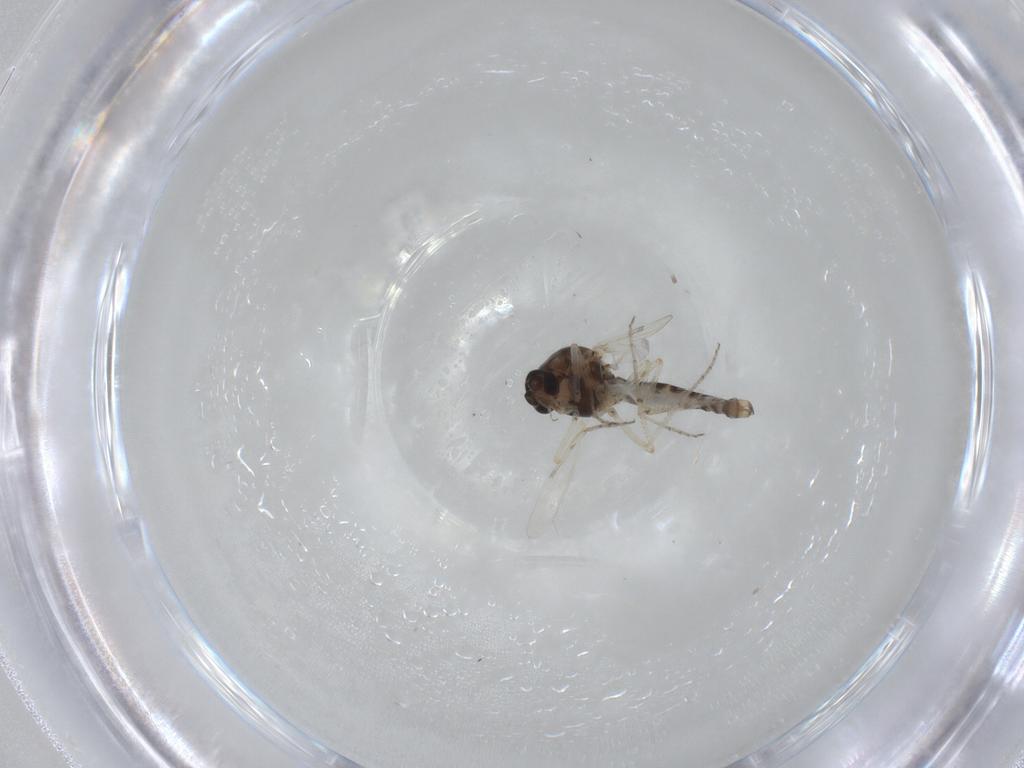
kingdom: Animalia
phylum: Arthropoda
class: Insecta
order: Diptera
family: Ceratopogonidae
